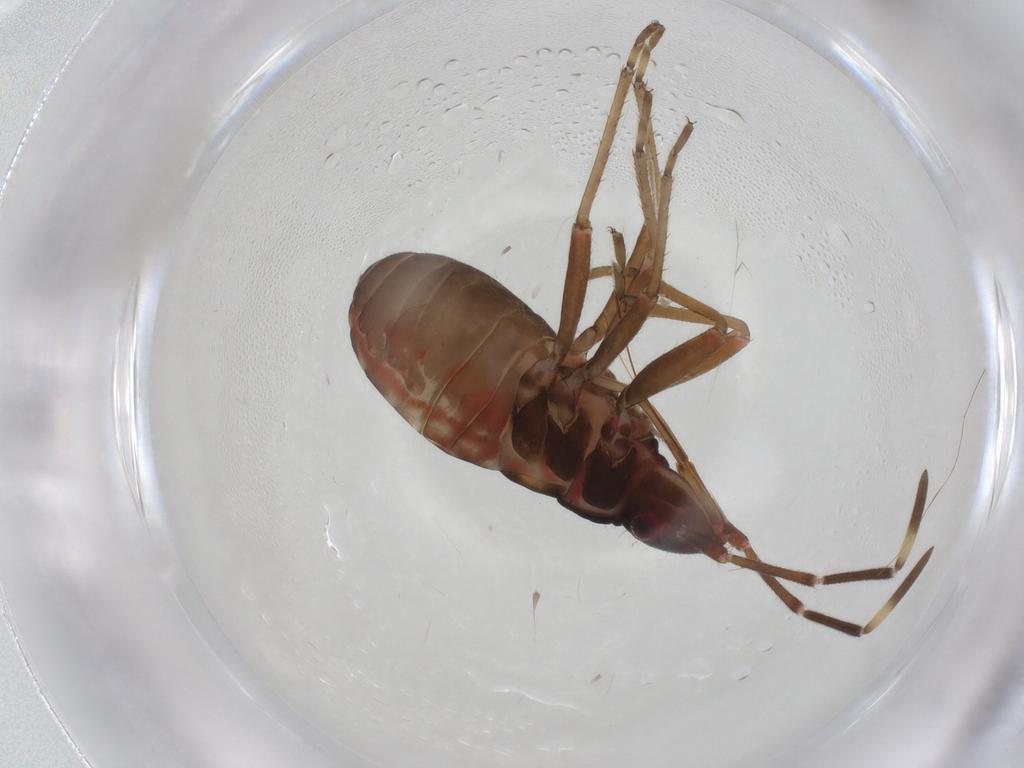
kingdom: Animalia
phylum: Arthropoda
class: Insecta
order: Hemiptera
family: Rhyparochromidae
